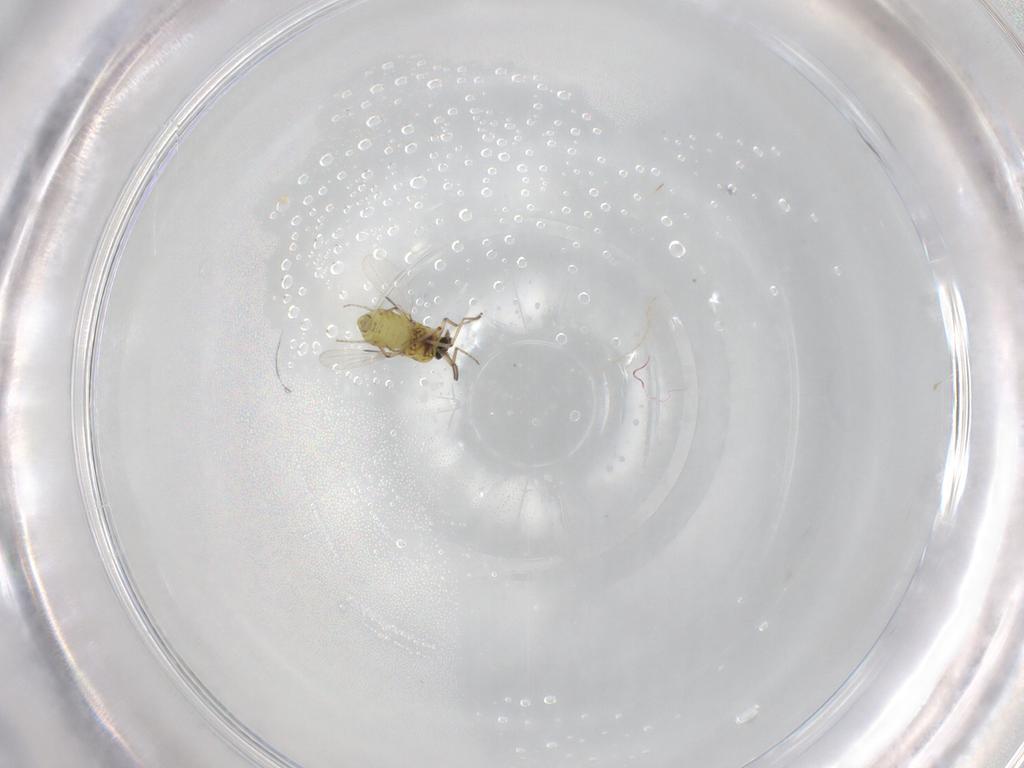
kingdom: Animalia
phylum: Arthropoda
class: Insecta
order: Diptera
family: Ceratopogonidae
